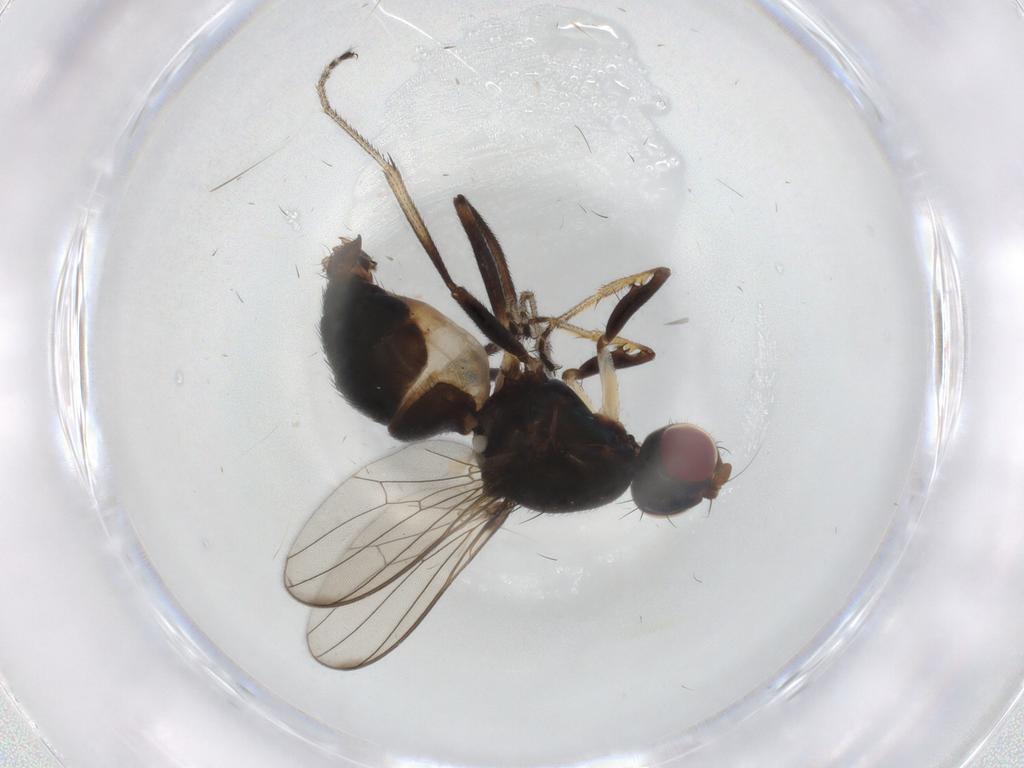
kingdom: Animalia
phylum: Arthropoda
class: Insecta
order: Diptera
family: Sepsidae
